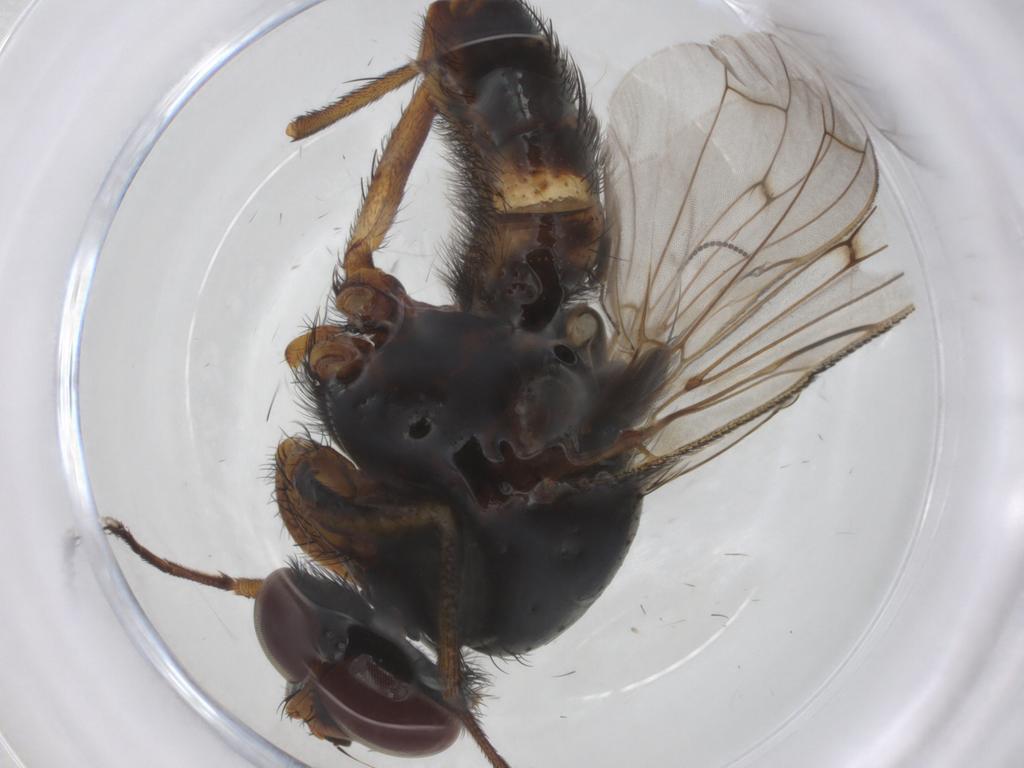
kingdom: Animalia
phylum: Arthropoda
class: Insecta
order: Diptera
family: Anthomyiidae
